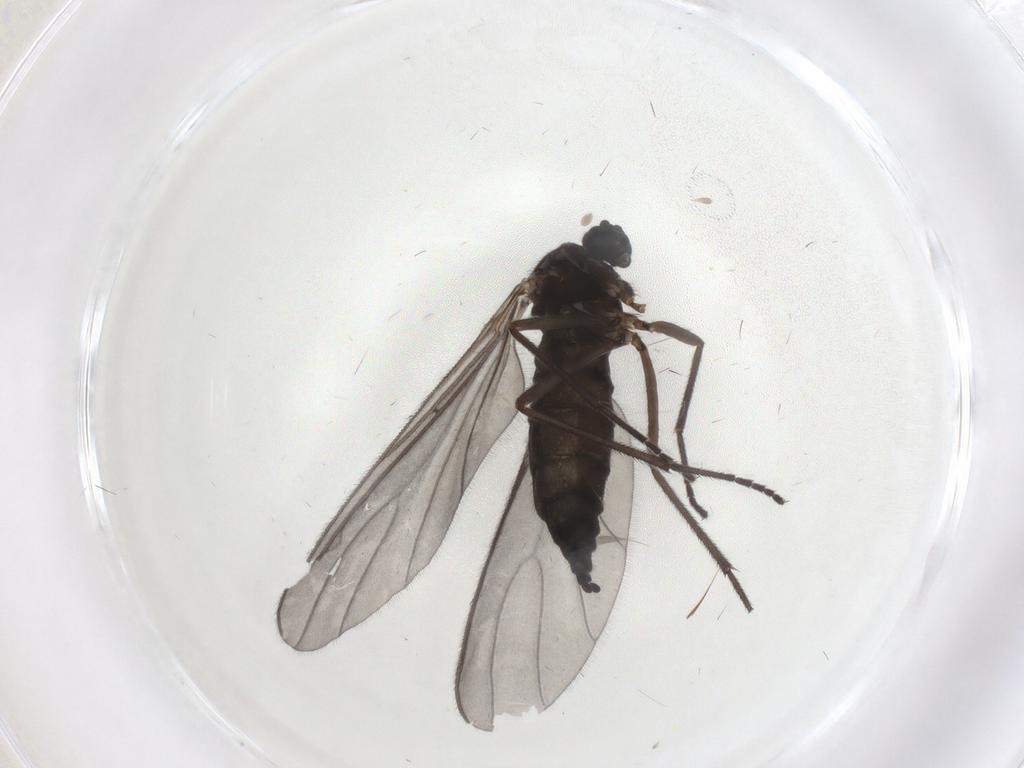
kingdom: Animalia
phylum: Arthropoda
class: Insecta
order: Diptera
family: Sciaridae
